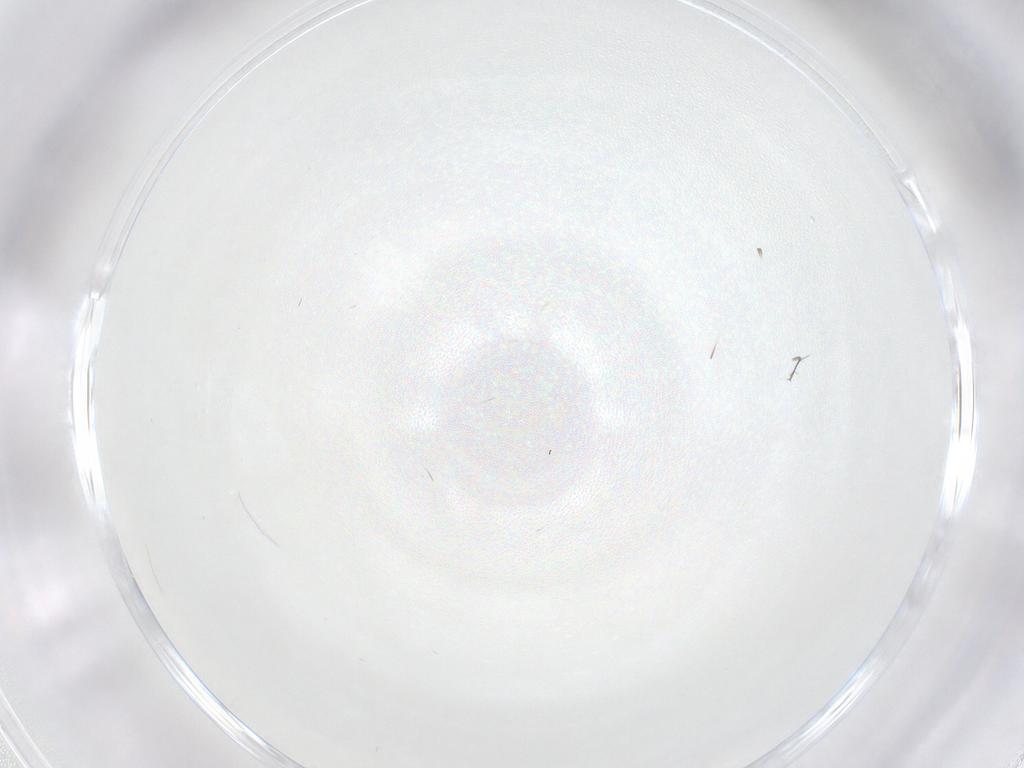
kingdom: Animalia
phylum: Arthropoda
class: Insecta
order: Diptera
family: Chironomidae
